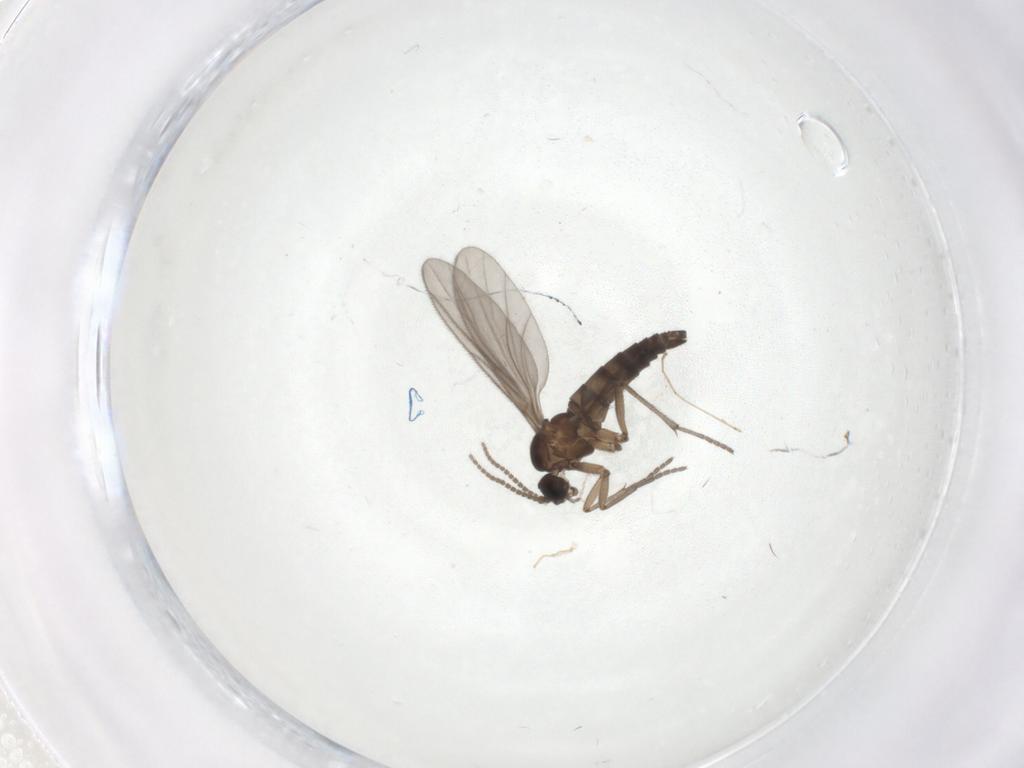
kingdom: Animalia
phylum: Arthropoda
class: Insecta
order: Diptera
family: Sciaridae
